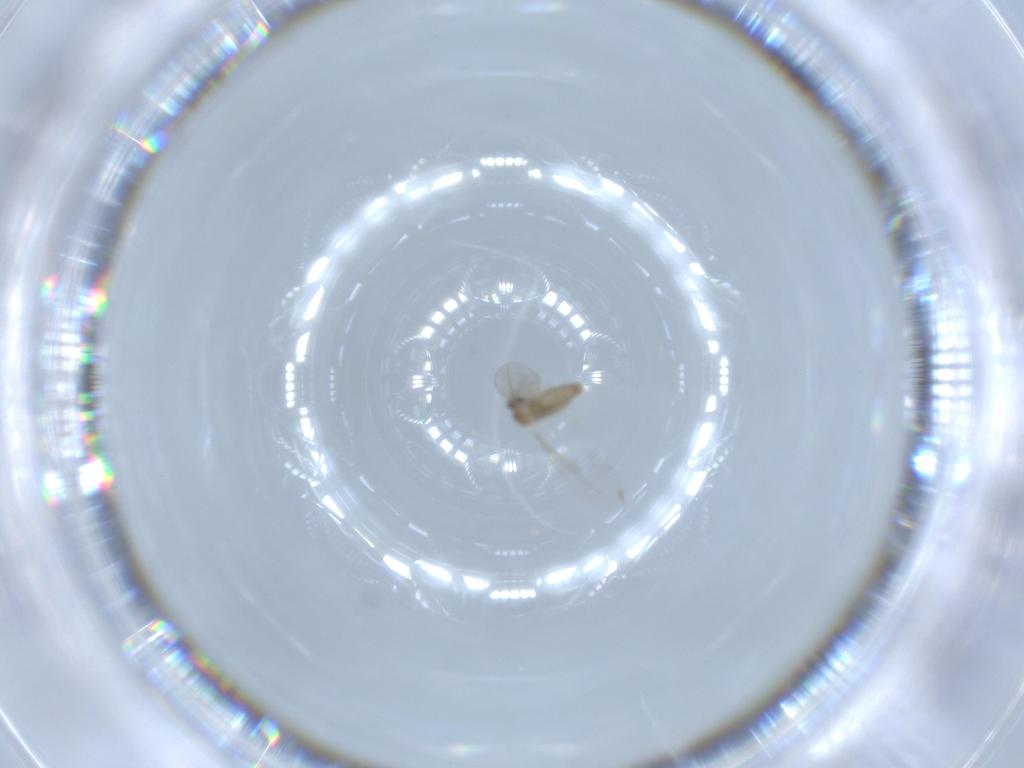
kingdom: Animalia
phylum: Arthropoda
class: Insecta
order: Diptera
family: Cecidomyiidae
